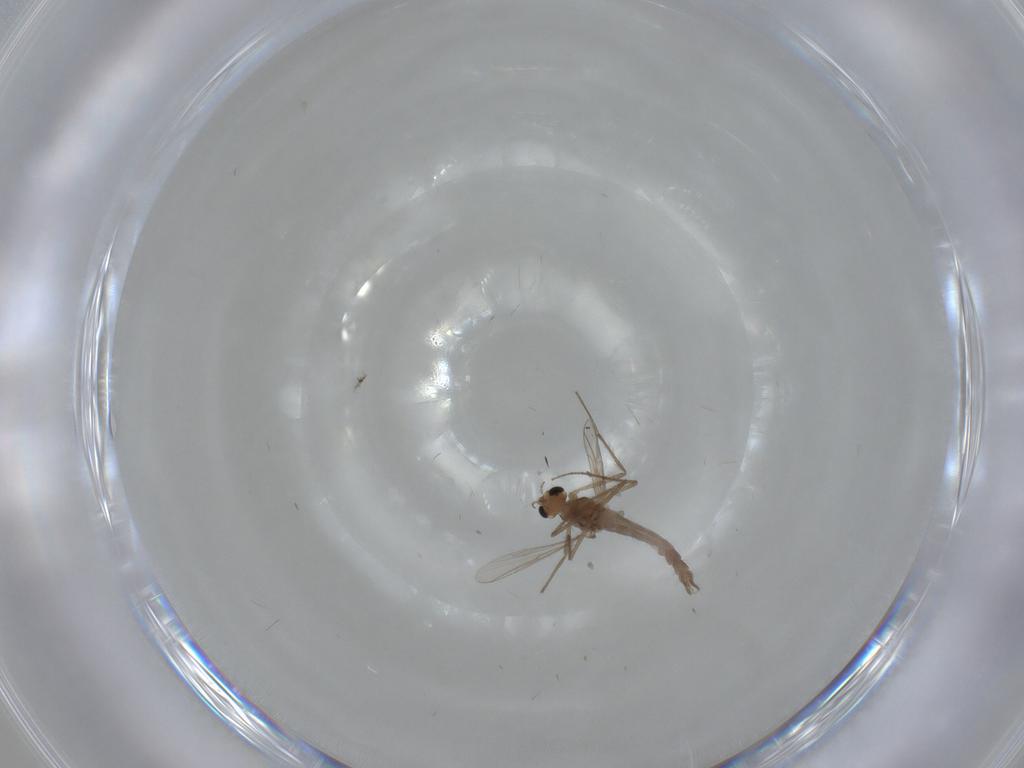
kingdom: Animalia
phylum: Arthropoda
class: Insecta
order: Diptera
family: Chironomidae
